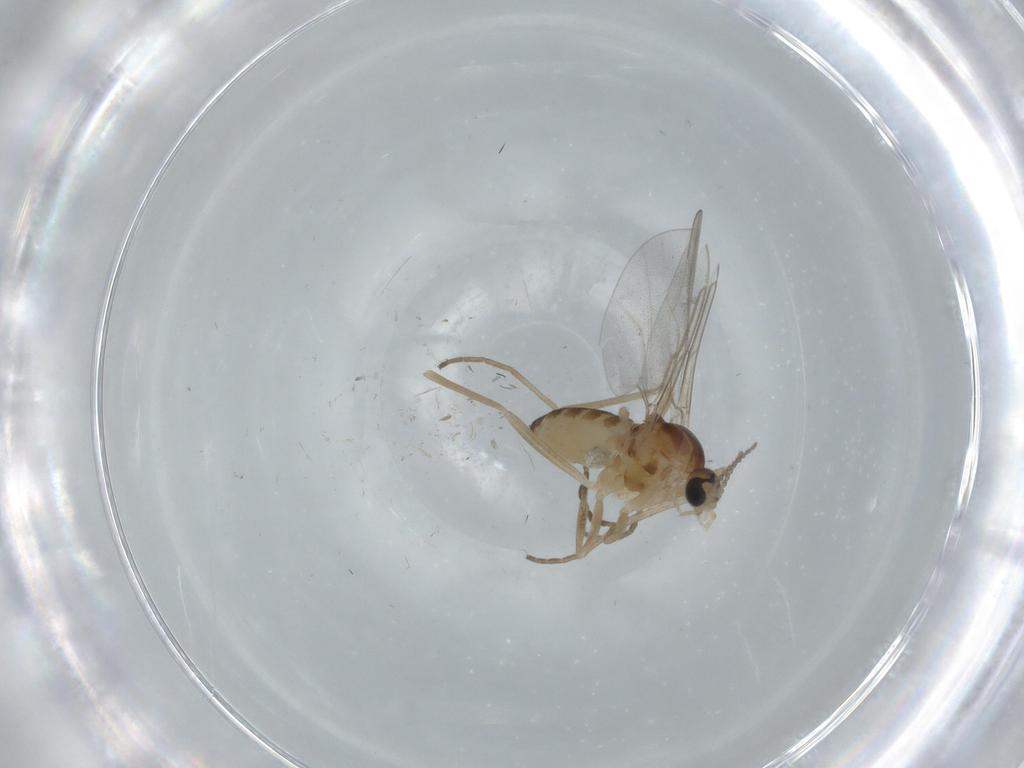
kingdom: Animalia
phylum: Arthropoda
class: Insecta
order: Diptera
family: Cecidomyiidae
